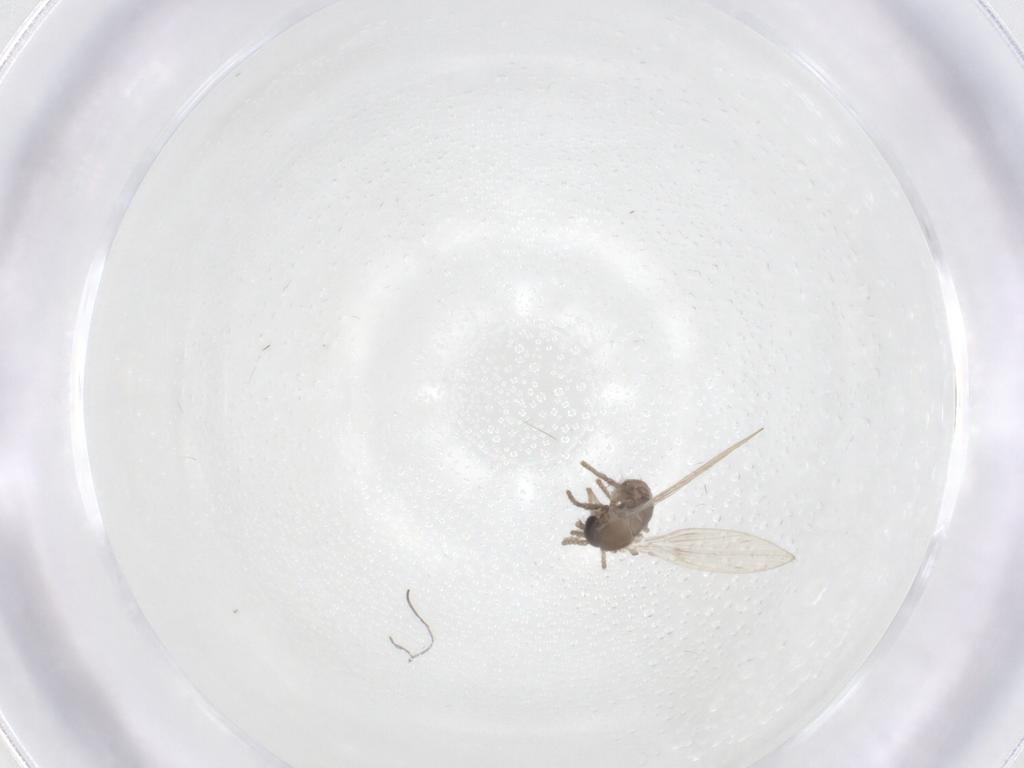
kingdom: Animalia
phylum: Arthropoda
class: Insecta
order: Diptera
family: Psychodidae
